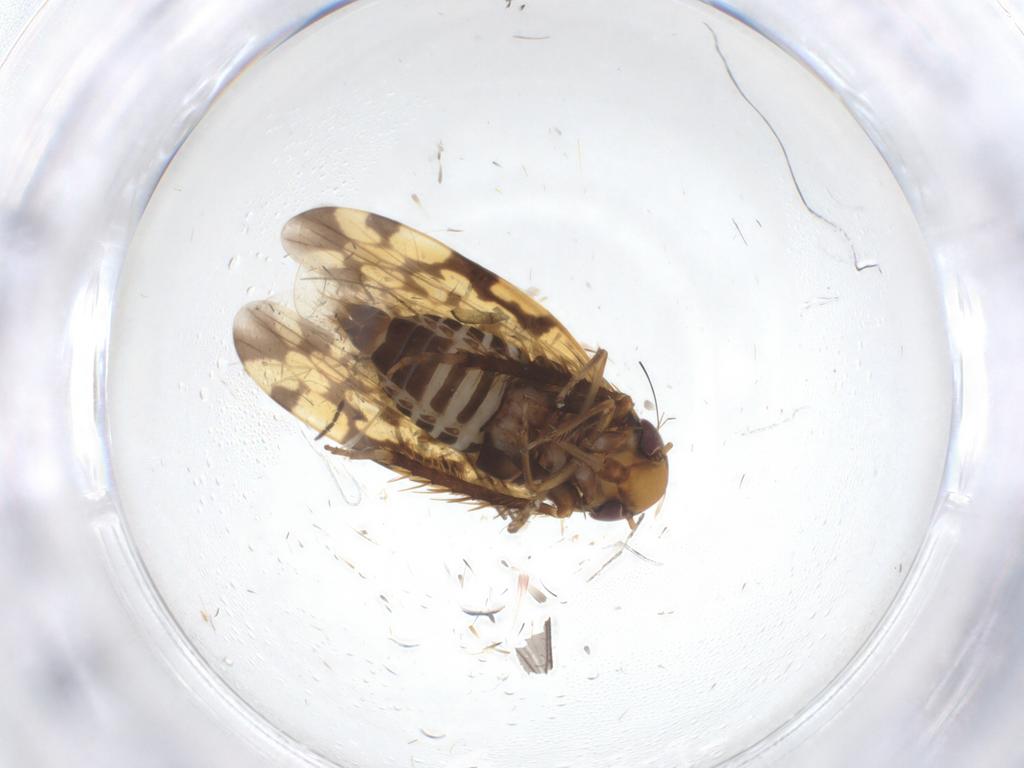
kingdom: Animalia
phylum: Arthropoda
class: Insecta
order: Hemiptera
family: Cicadellidae
